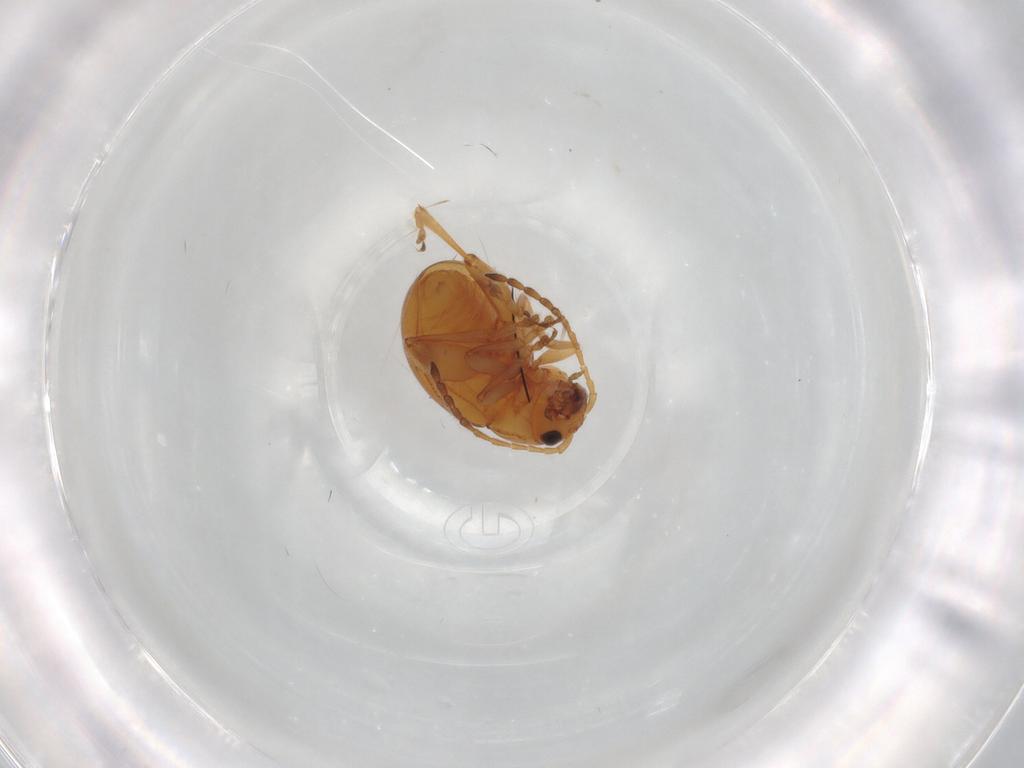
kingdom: Animalia
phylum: Arthropoda
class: Insecta
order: Coleoptera
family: Chrysomelidae
